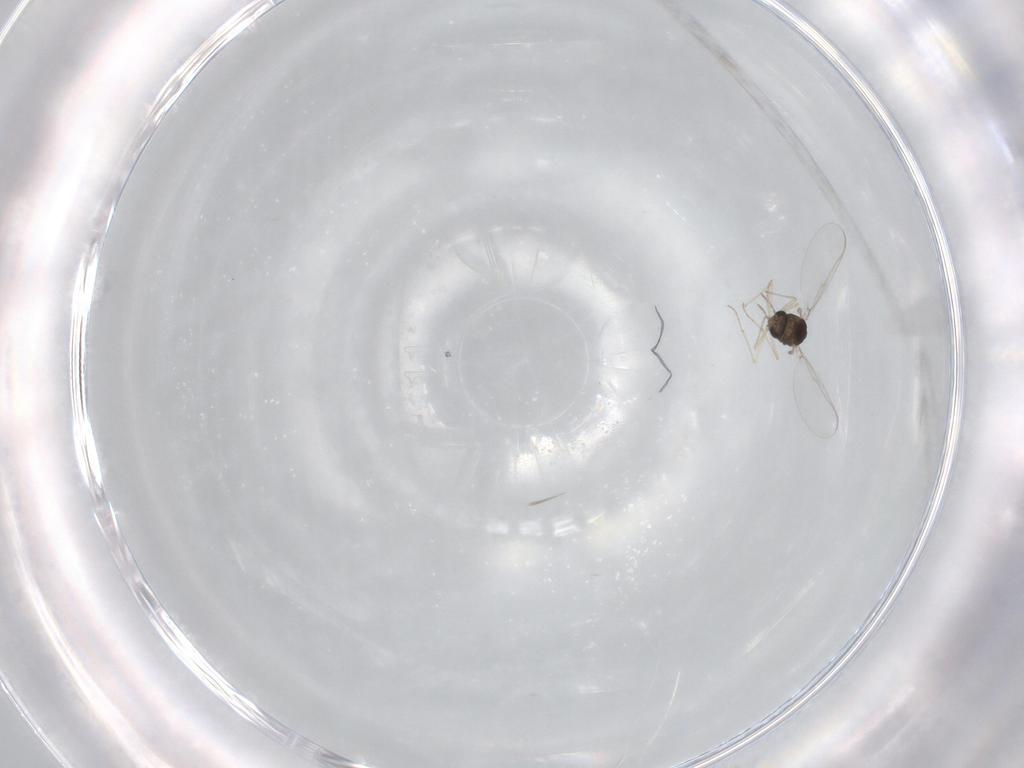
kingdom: Animalia
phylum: Arthropoda
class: Insecta
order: Diptera
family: Chironomidae
